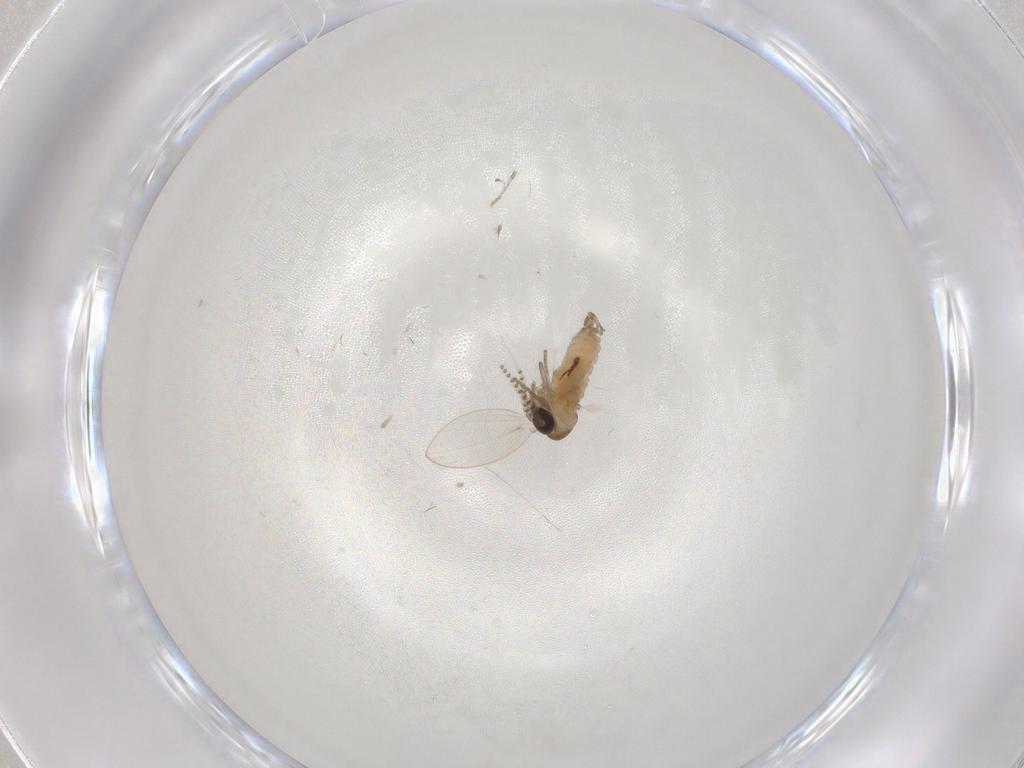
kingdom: Animalia
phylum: Arthropoda
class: Insecta
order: Diptera
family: Psychodidae
